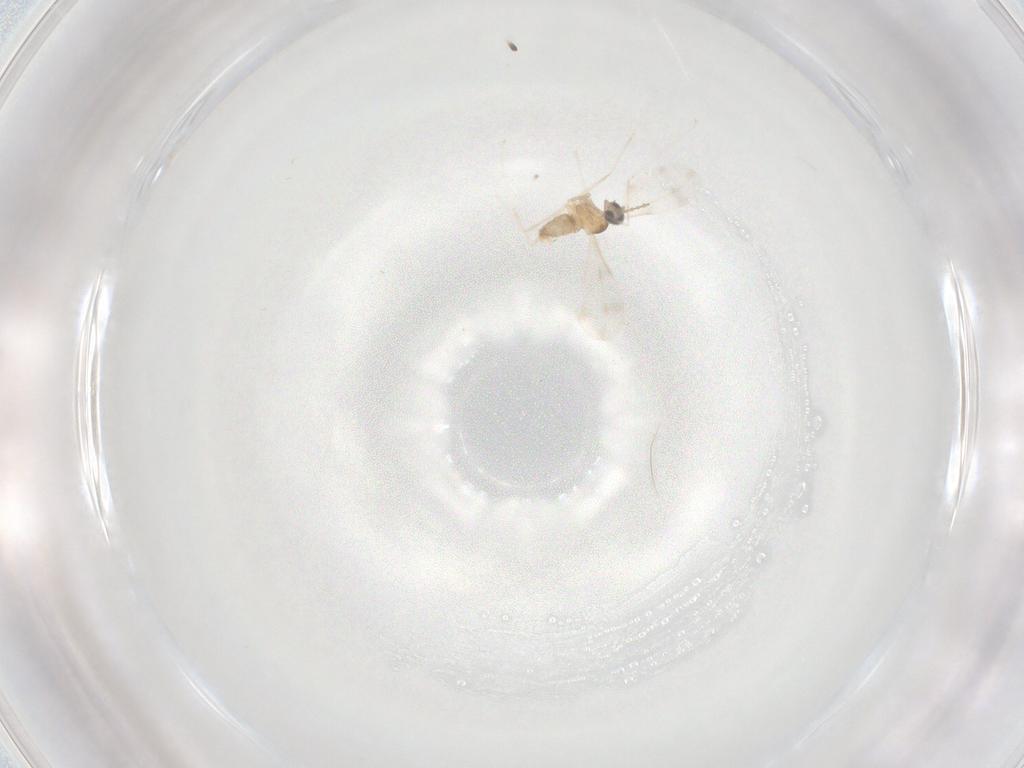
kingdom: Animalia
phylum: Arthropoda
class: Insecta
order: Diptera
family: Cecidomyiidae
